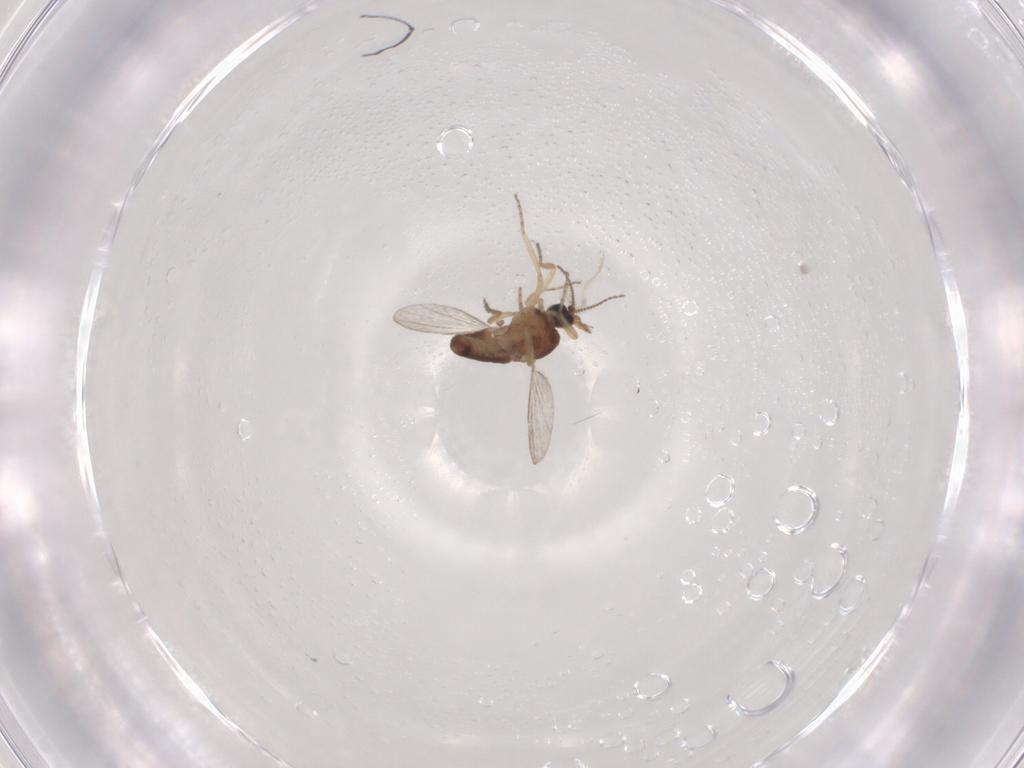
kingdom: Animalia
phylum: Arthropoda
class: Insecta
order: Diptera
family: Ceratopogonidae
